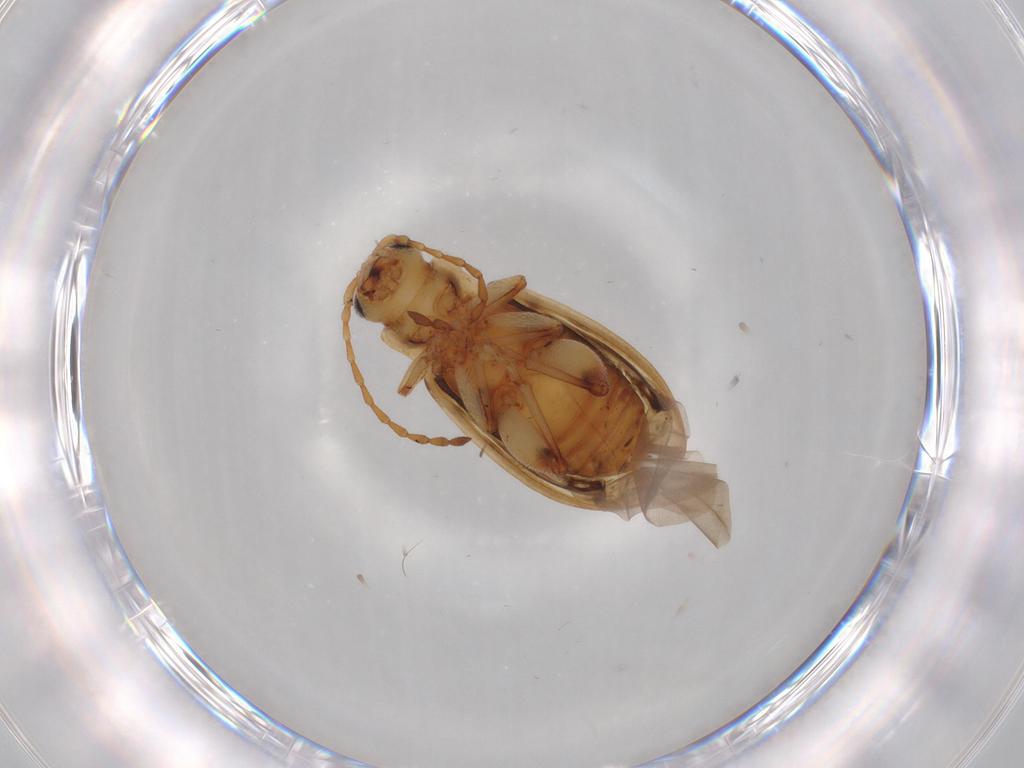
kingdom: Animalia
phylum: Arthropoda
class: Insecta
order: Coleoptera
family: Chrysomelidae
